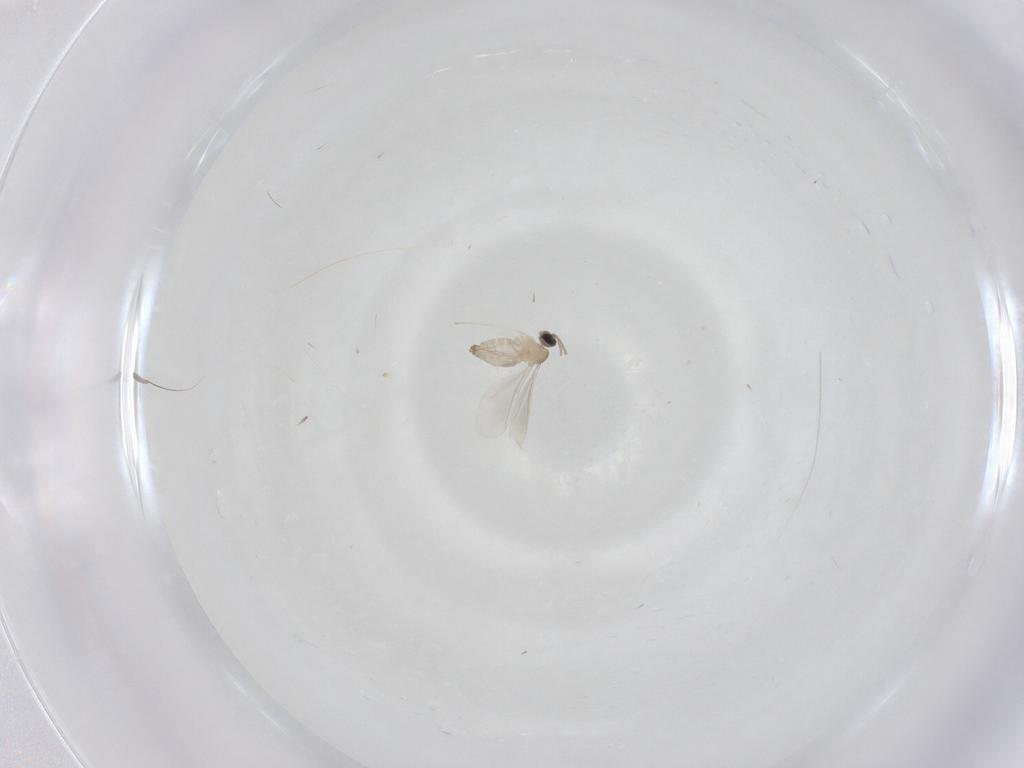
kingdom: Animalia
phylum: Arthropoda
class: Insecta
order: Diptera
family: Cecidomyiidae
